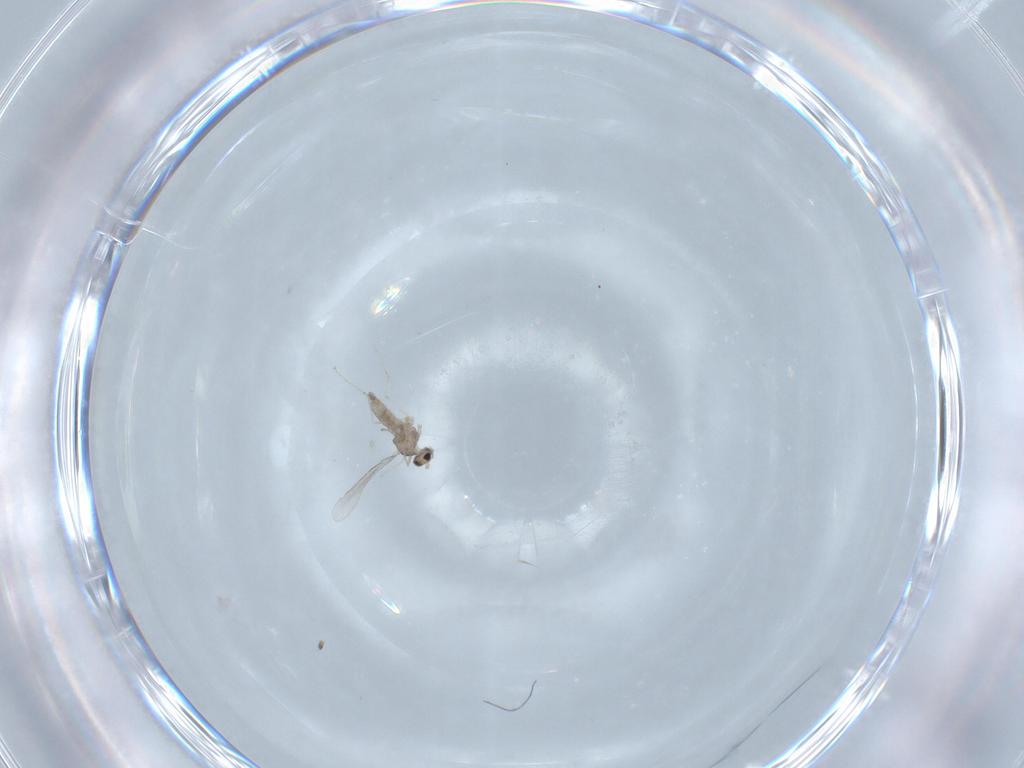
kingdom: Animalia
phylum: Arthropoda
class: Insecta
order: Diptera
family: Cecidomyiidae
